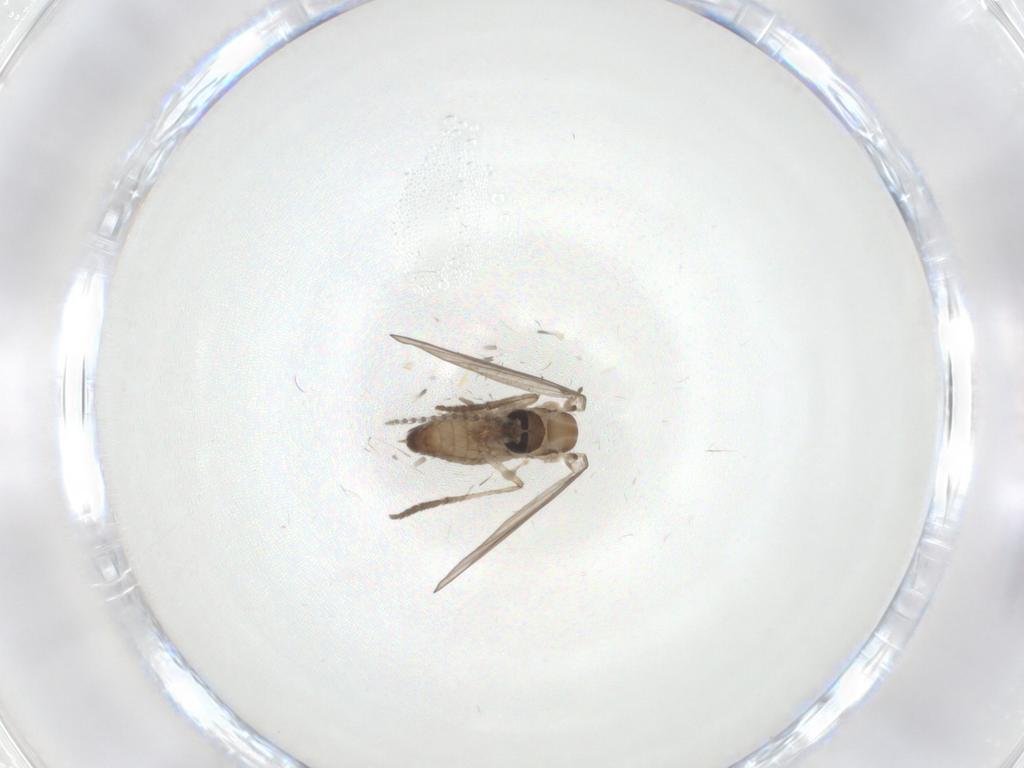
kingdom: Animalia
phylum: Arthropoda
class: Insecta
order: Diptera
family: Psychodidae
